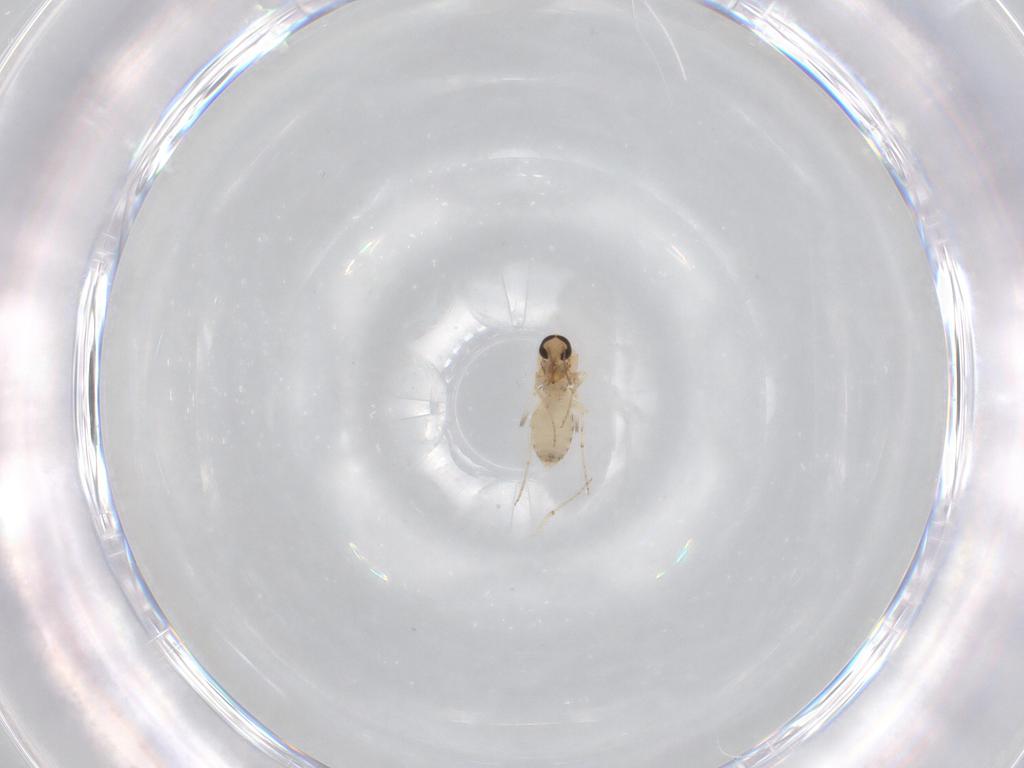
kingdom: Animalia
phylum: Arthropoda
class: Insecta
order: Diptera
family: Ceratopogonidae
